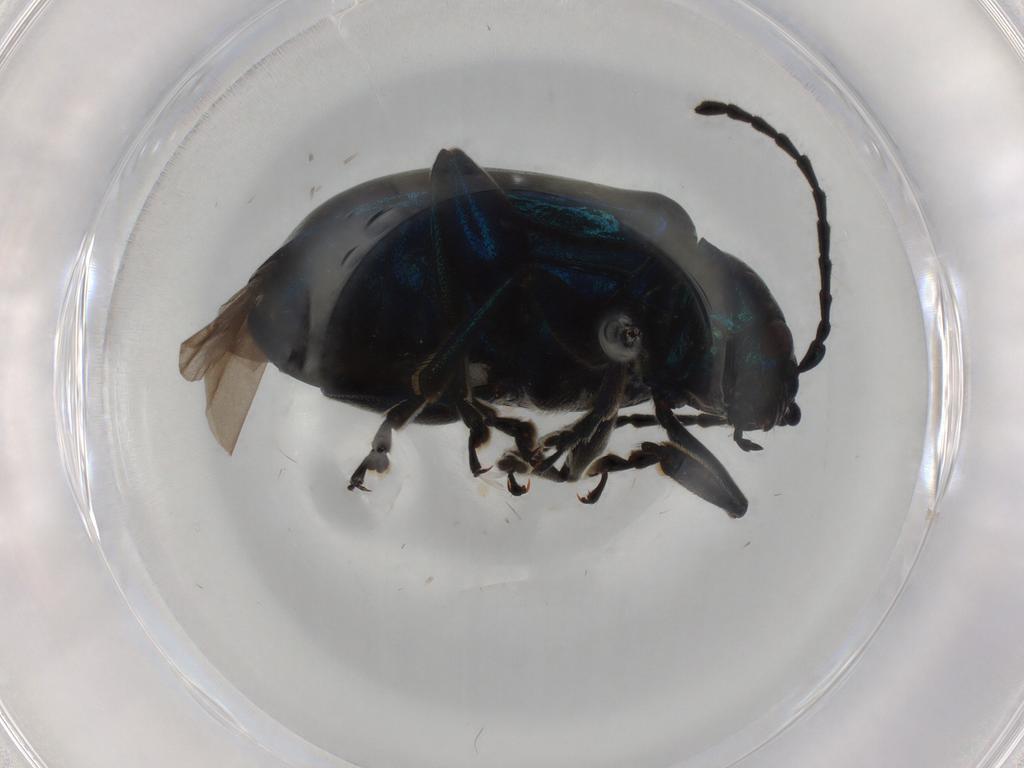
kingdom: Animalia
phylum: Arthropoda
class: Insecta
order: Coleoptera
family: Chrysomelidae
